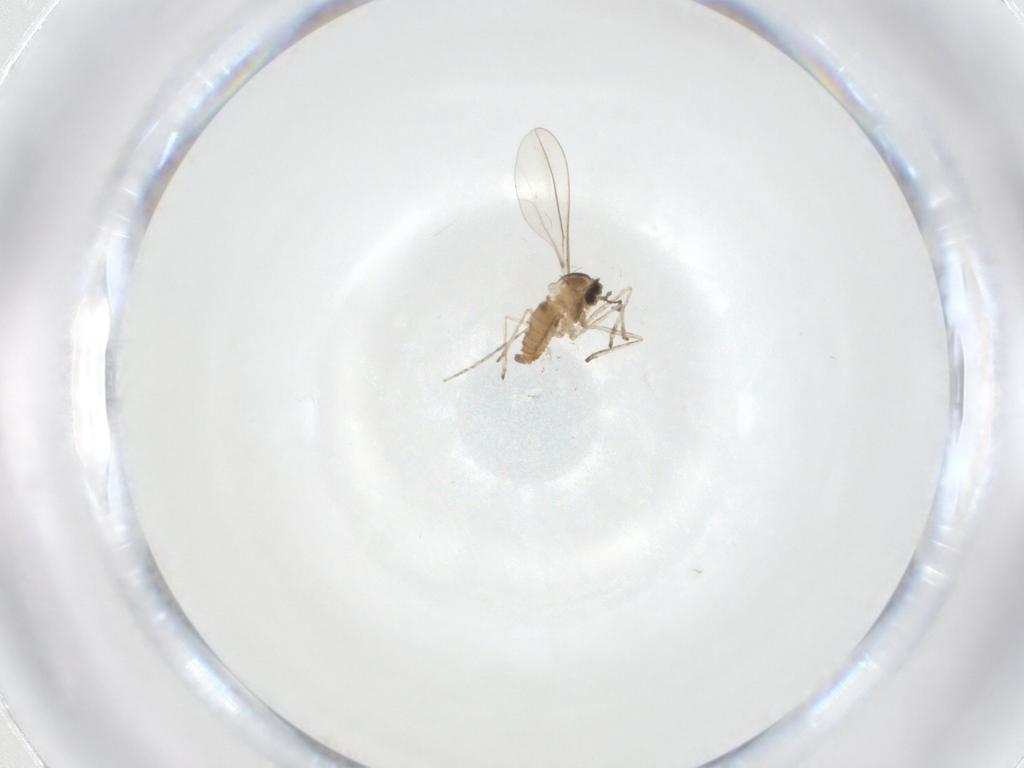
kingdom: Animalia
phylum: Arthropoda
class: Insecta
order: Diptera
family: Cecidomyiidae
